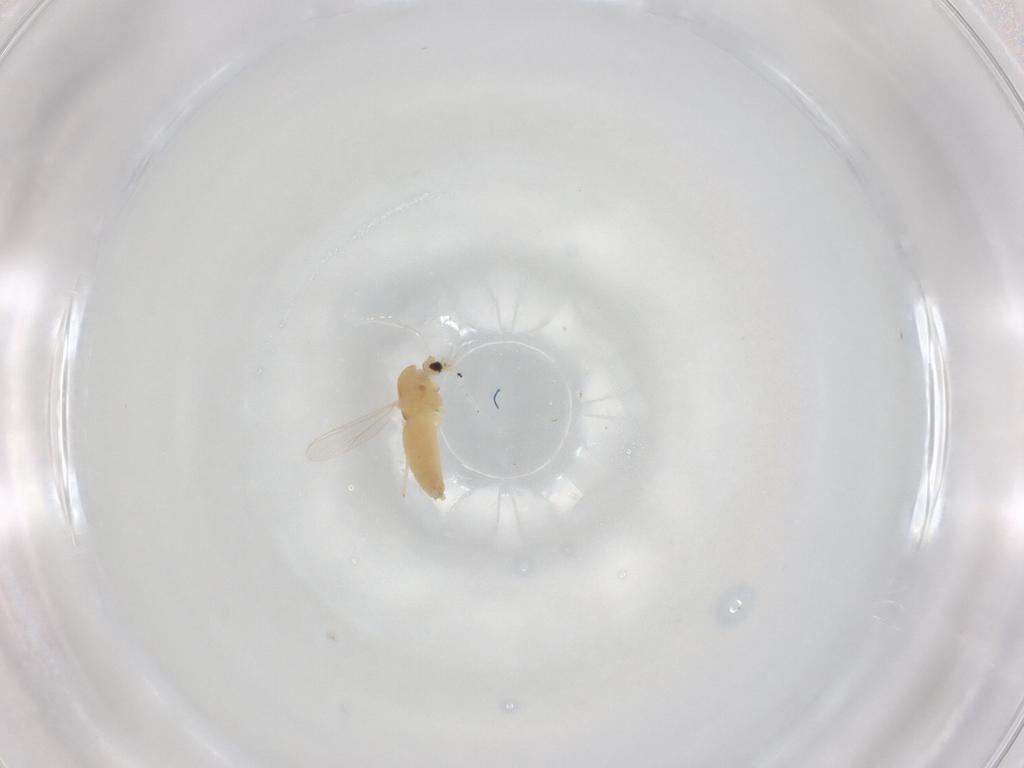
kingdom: Animalia
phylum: Arthropoda
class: Insecta
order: Diptera
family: Chironomidae
